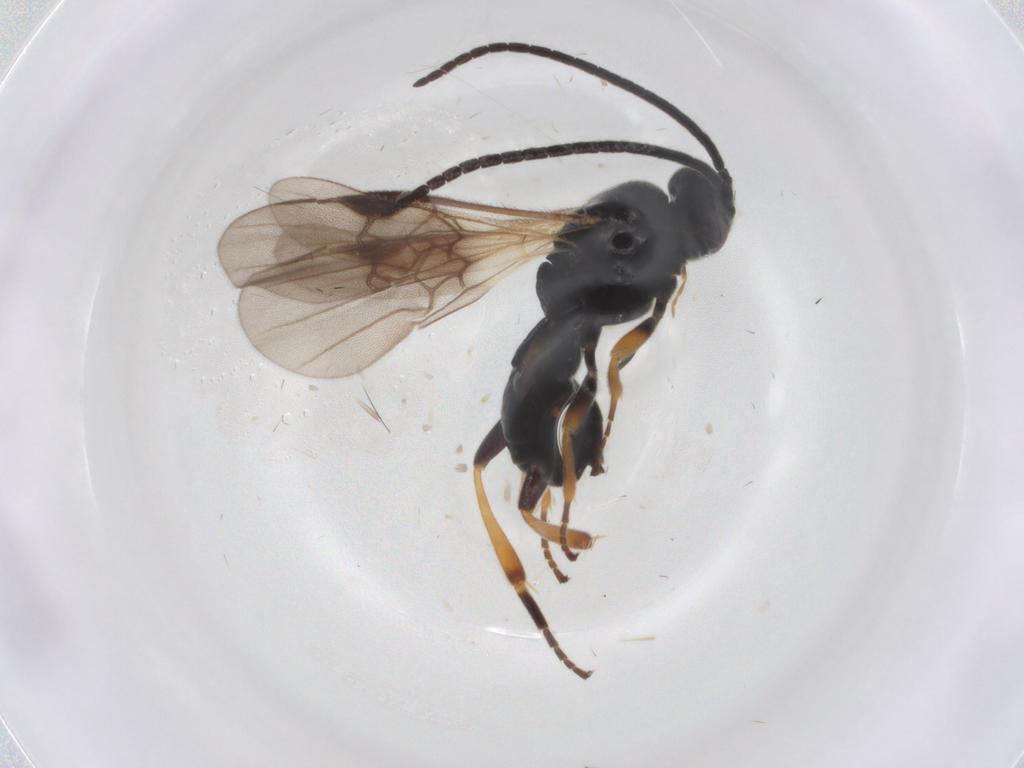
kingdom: Animalia
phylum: Arthropoda
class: Insecta
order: Hymenoptera
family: Braconidae
